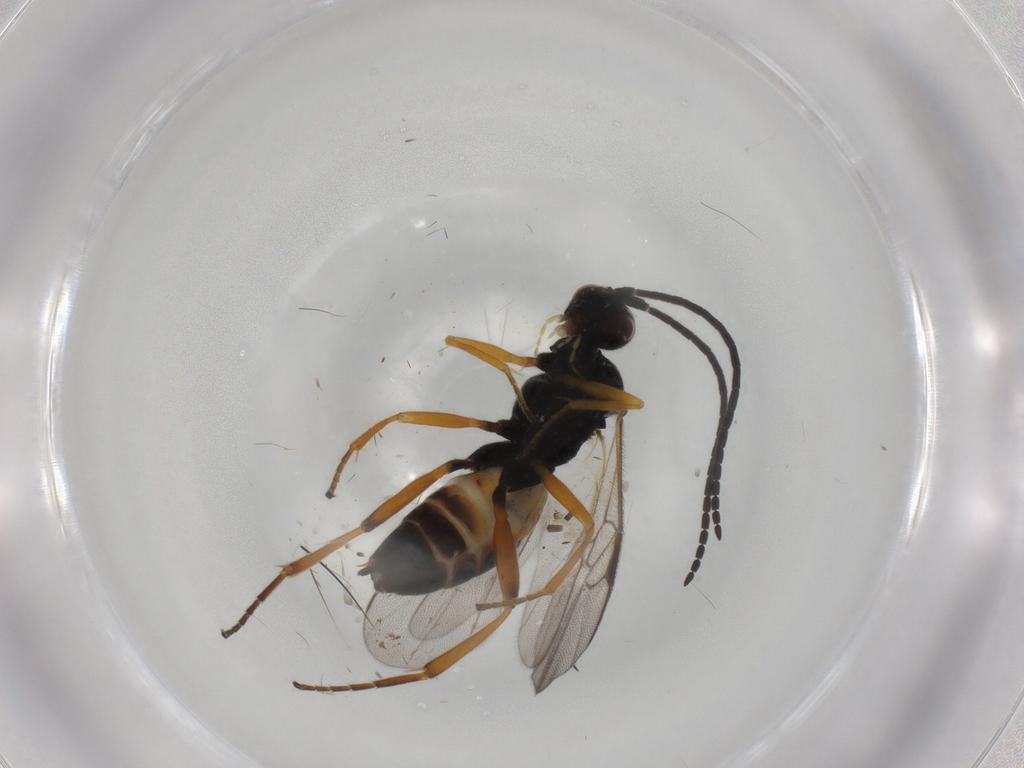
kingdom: Animalia
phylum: Arthropoda
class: Insecta
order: Hymenoptera
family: Braconidae
